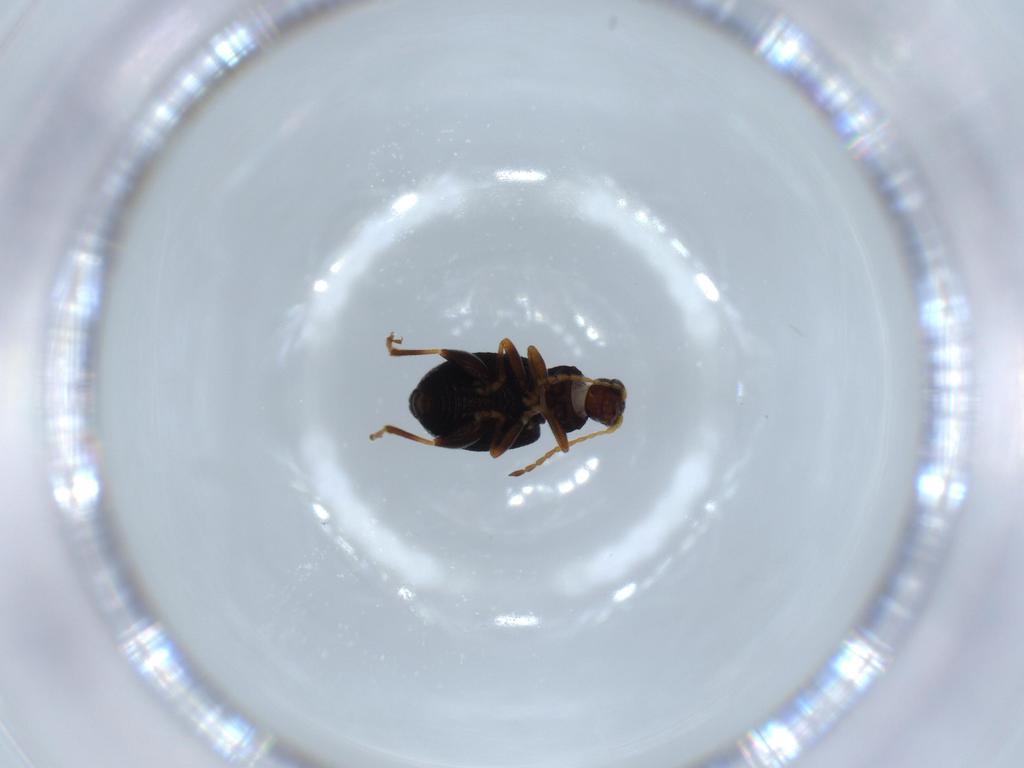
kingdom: Animalia
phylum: Arthropoda
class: Insecta
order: Coleoptera
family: Chrysomelidae
